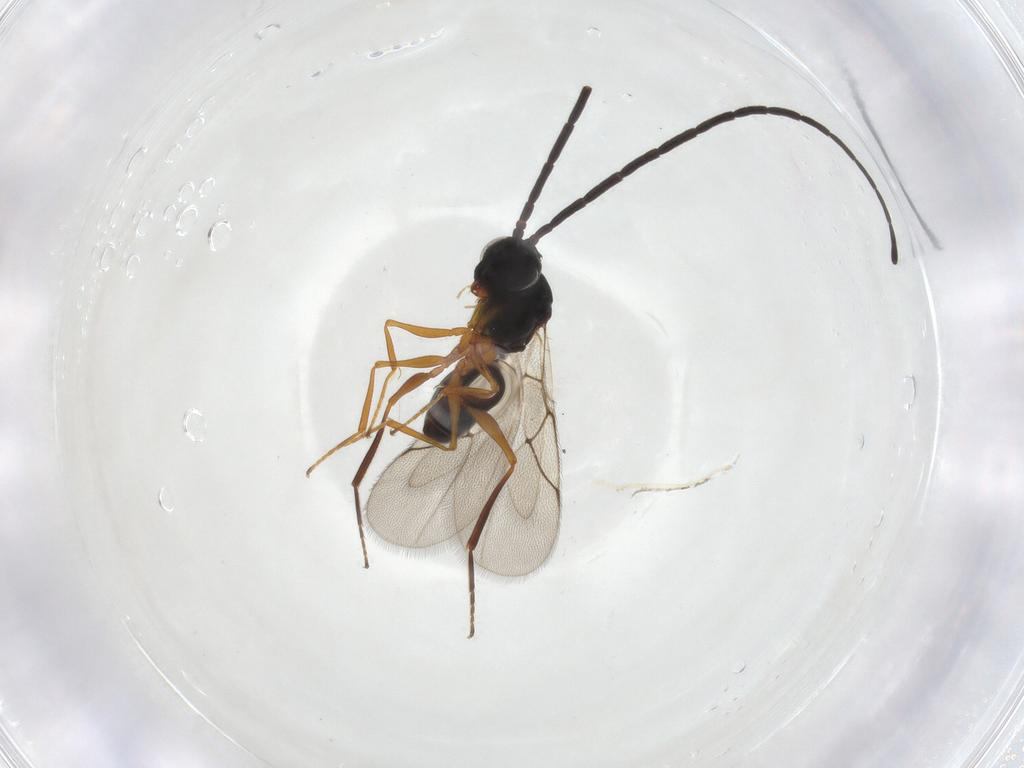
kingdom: Animalia
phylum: Arthropoda
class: Insecta
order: Hymenoptera
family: Figitidae
